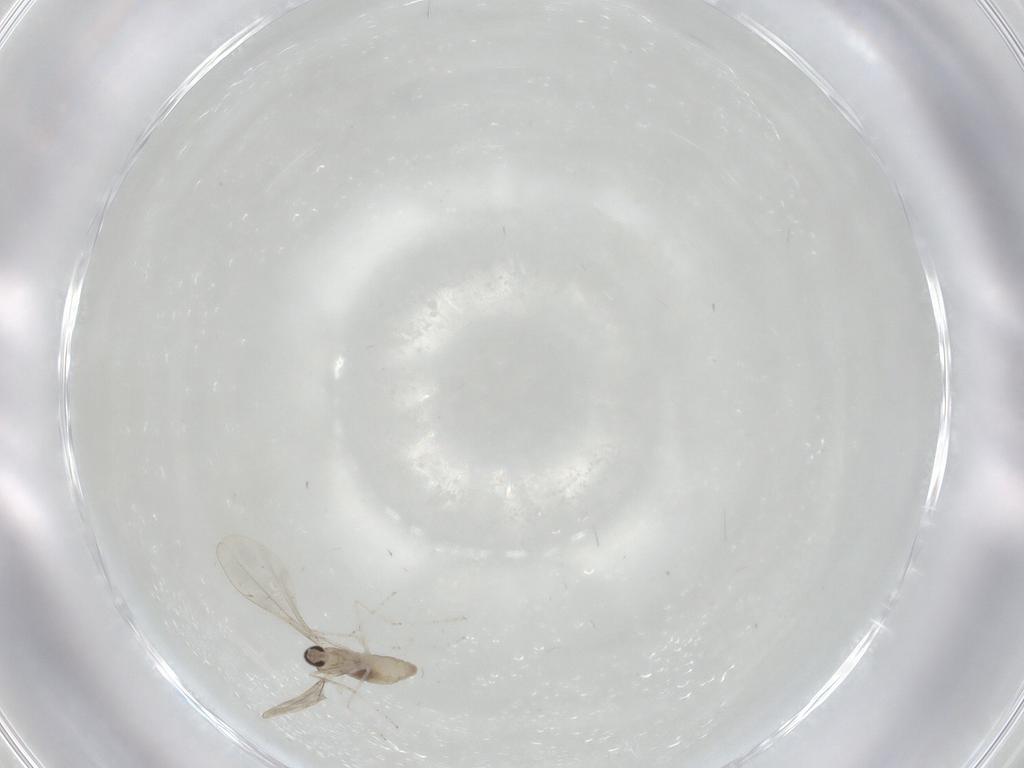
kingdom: Animalia
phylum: Arthropoda
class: Insecta
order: Diptera
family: Cecidomyiidae
